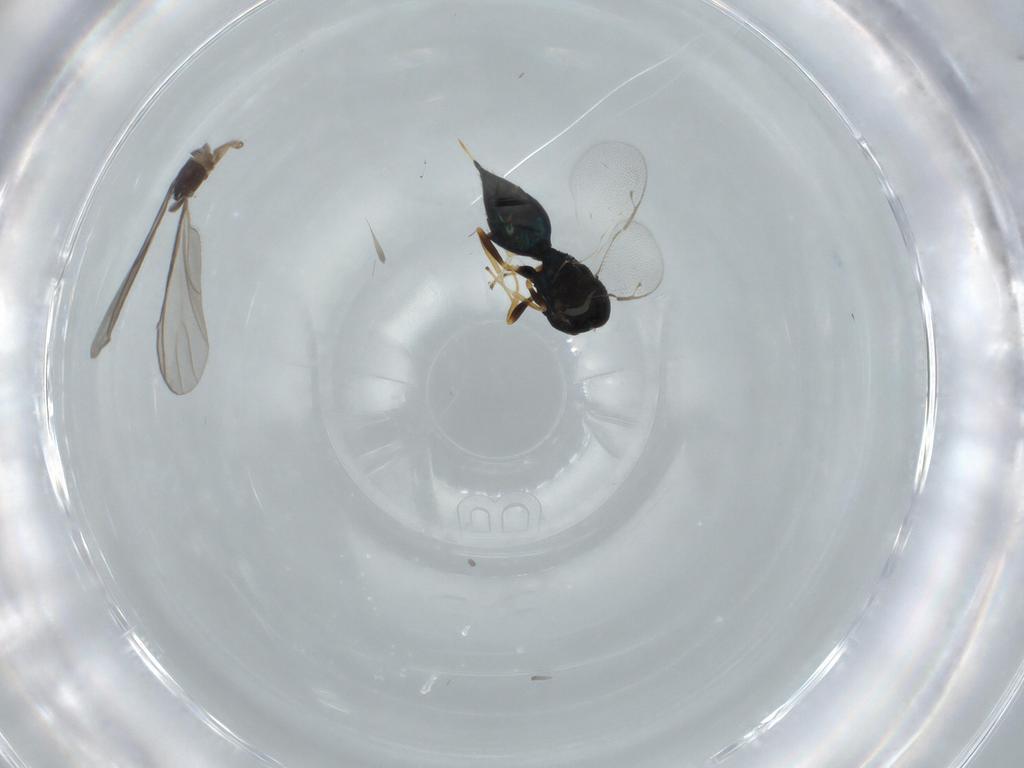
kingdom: Animalia
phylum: Arthropoda
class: Insecta
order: Hymenoptera
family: Pteromalidae
